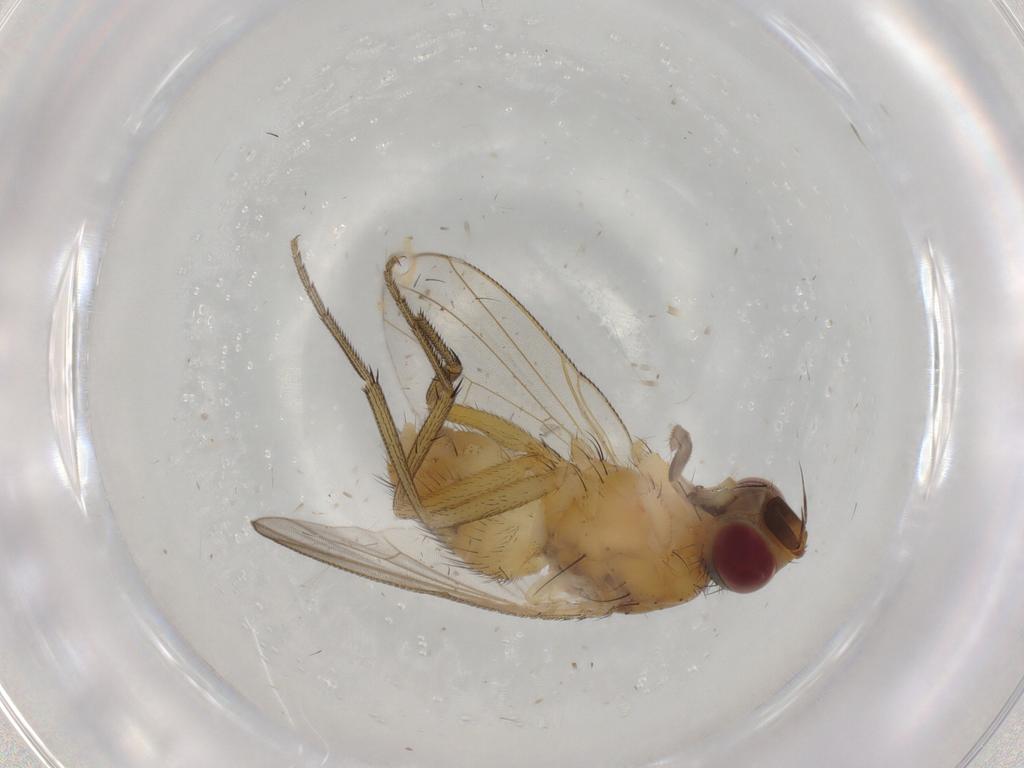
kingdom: Animalia
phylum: Arthropoda
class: Insecta
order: Diptera
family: Muscidae
